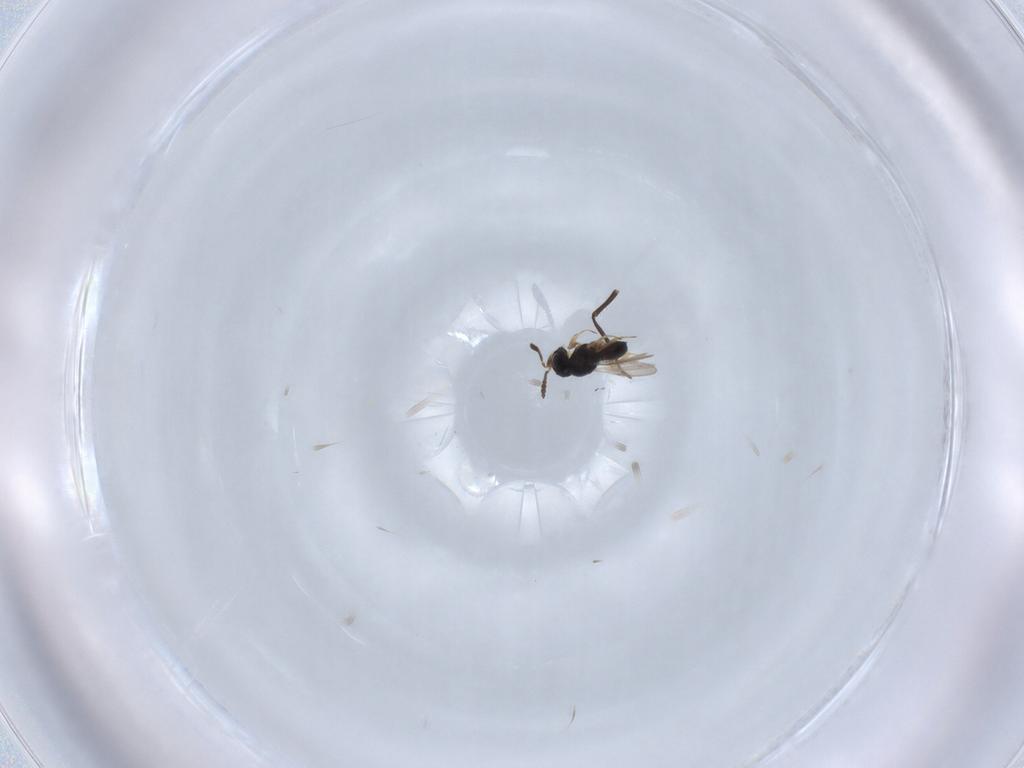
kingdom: Animalia
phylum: Arthropoda
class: Insecta
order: Hymenoptera
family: Scelionidae
